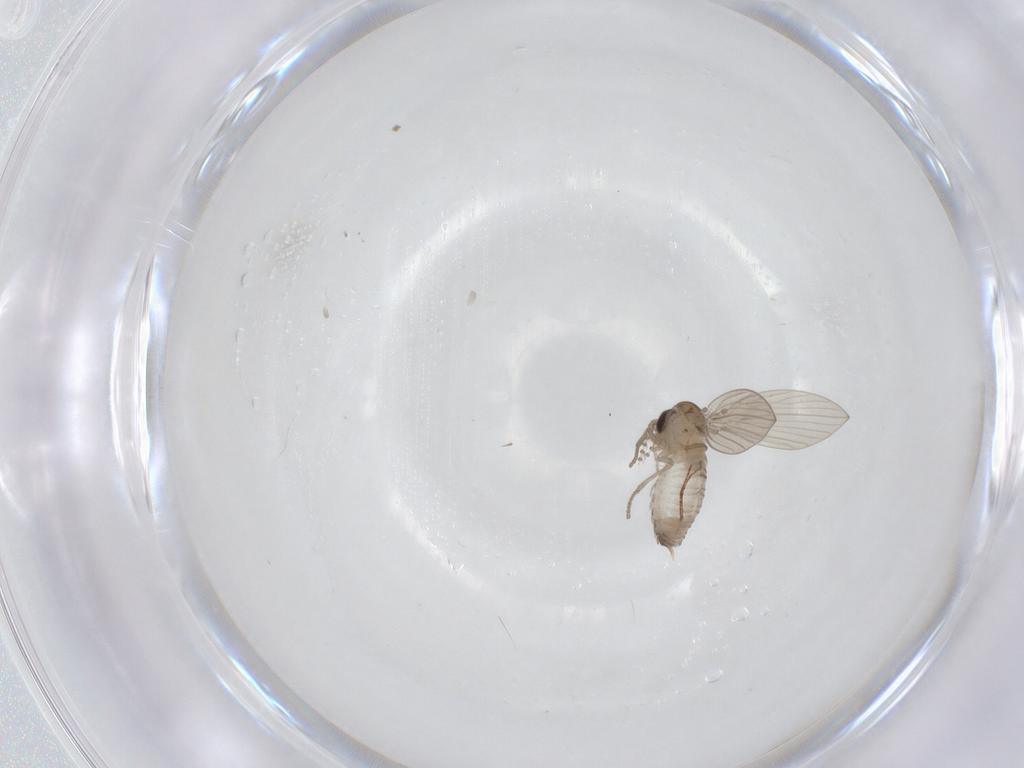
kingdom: Animalia
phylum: Arthropoda
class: Insecta
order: Diptera
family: Psychodidae
